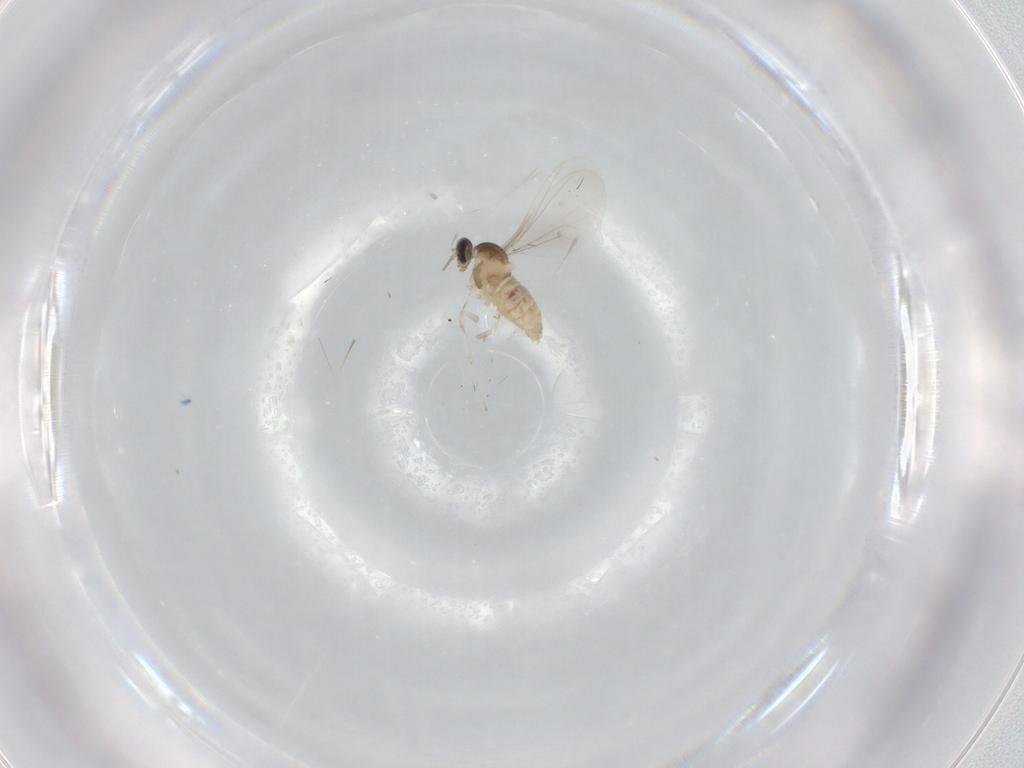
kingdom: Animalia
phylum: Arthropoda
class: Insecta
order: Diptera
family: Cecidomyiidae
